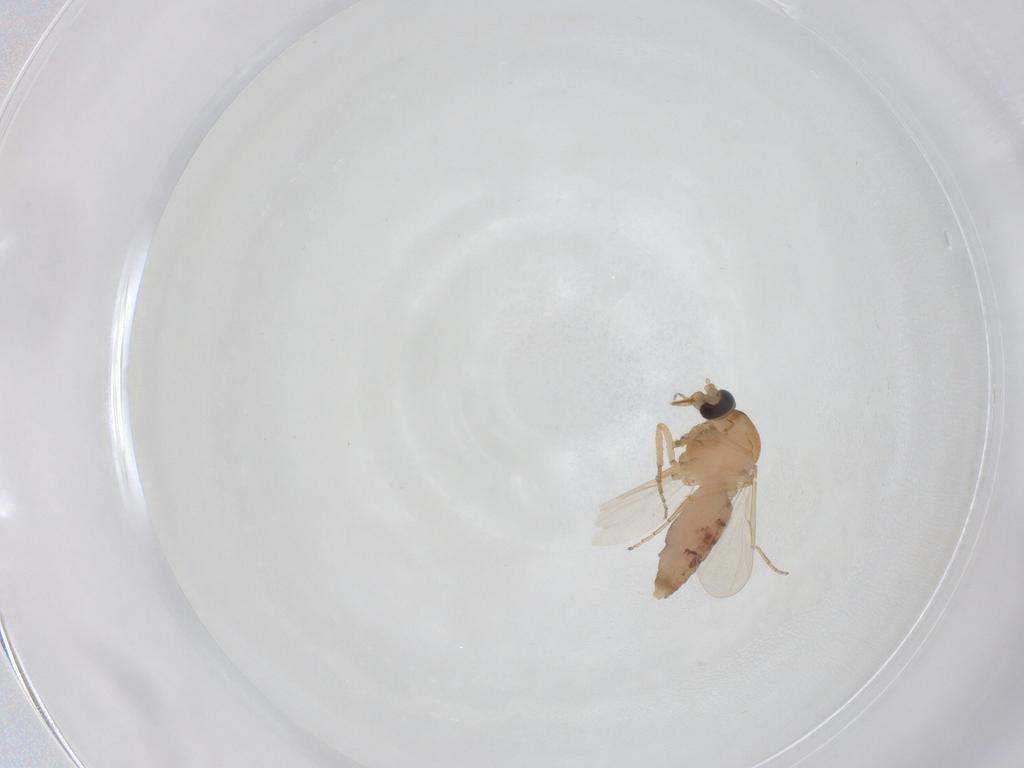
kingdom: Animalia
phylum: Arthropoda
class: Insecta
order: Diptera
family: Ceratopogonidae
